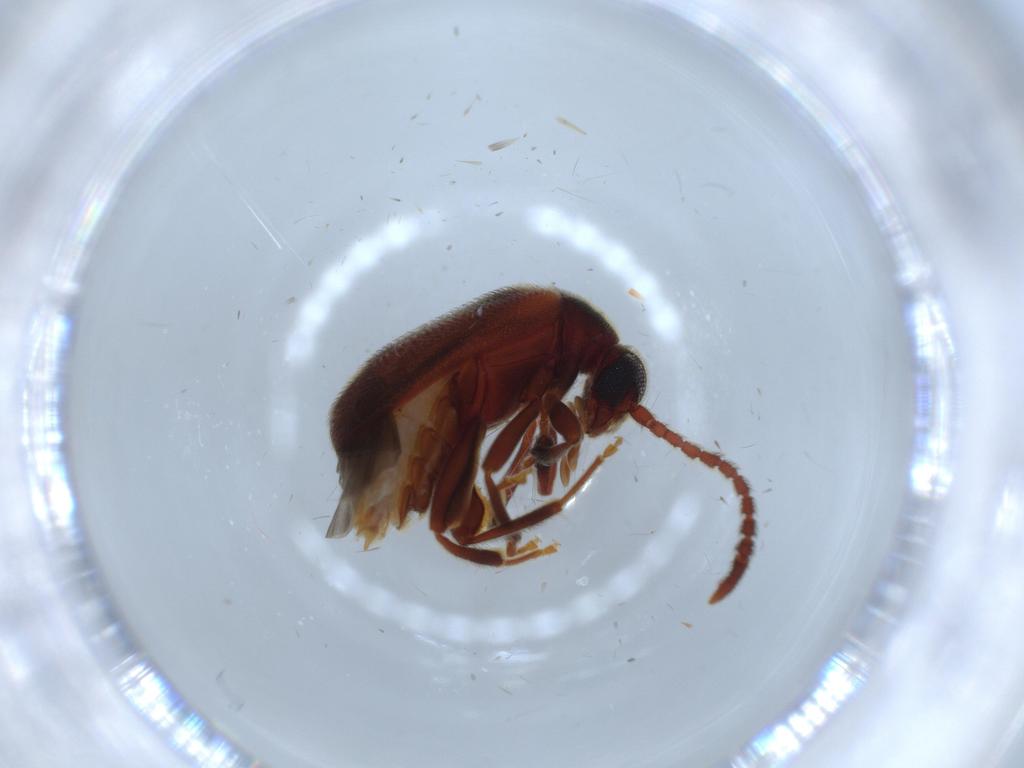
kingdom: Animalia
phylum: Arthropoda
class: Insecta
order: Coleoptera
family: Aderidae
